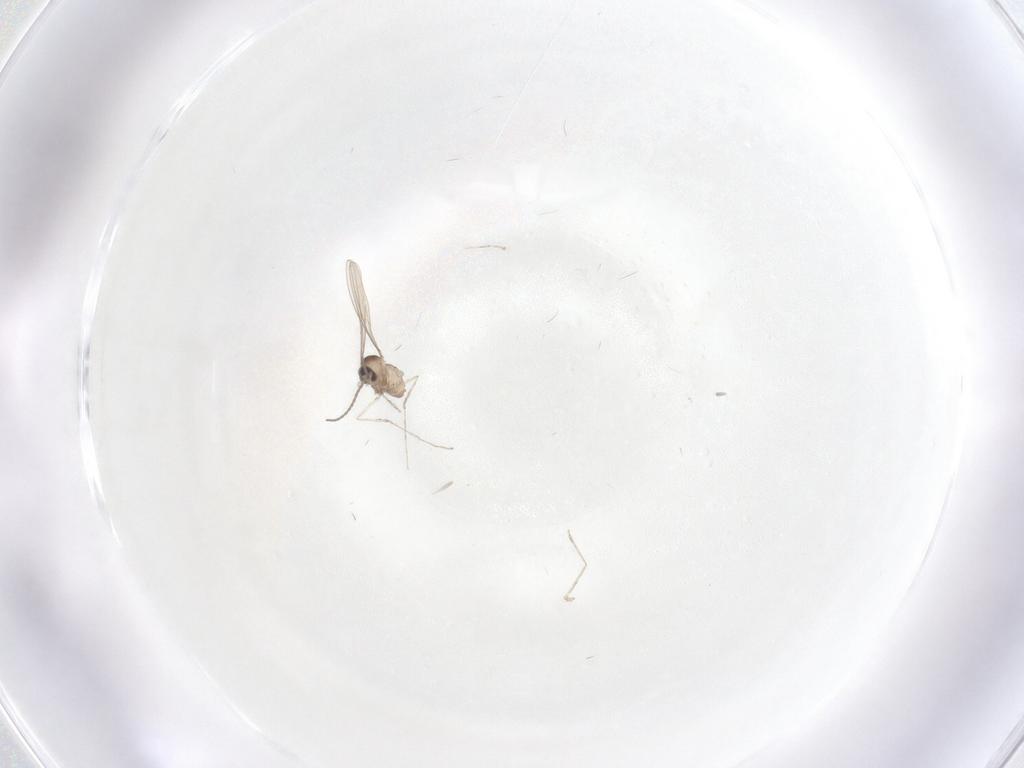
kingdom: Animalia
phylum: Arthropoda
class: Insecta
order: Diptera
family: Cecidomyiidae
